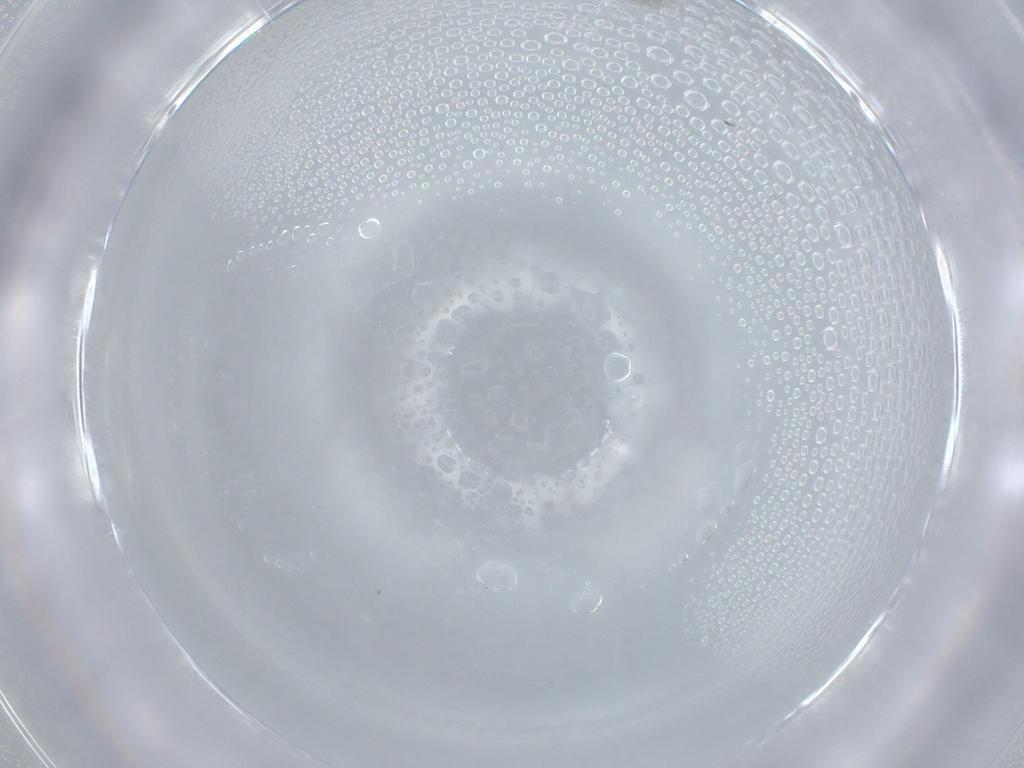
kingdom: Animalia
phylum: Arthropoda
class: Insecta
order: Diptera
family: Cecidomyiidae
